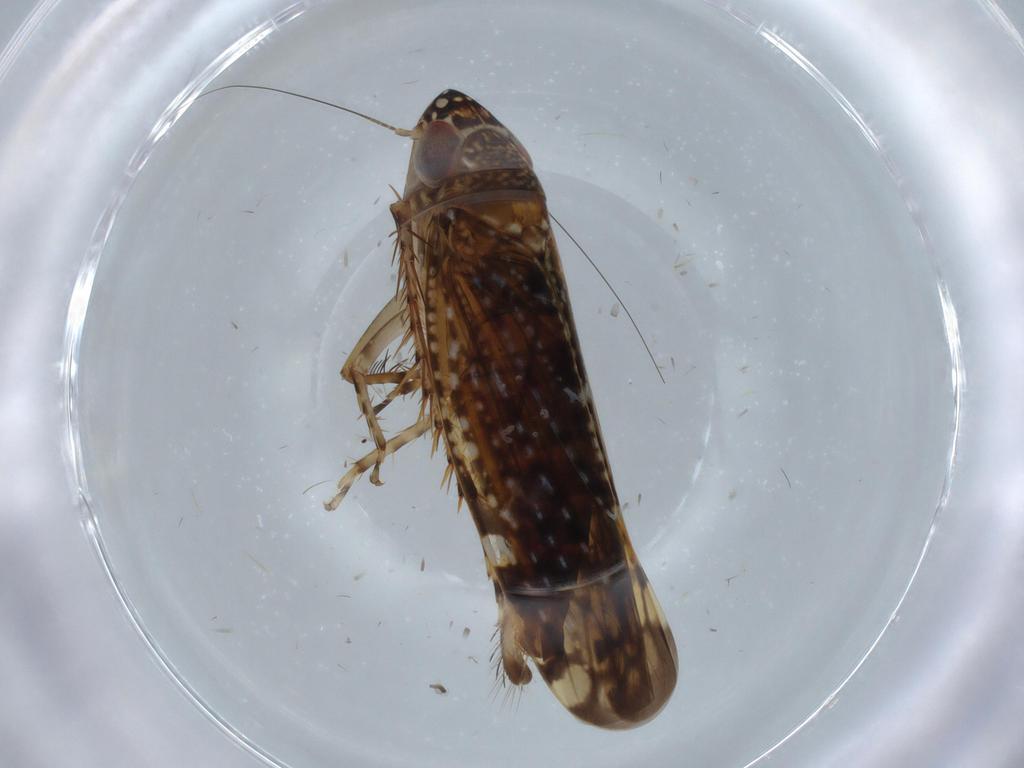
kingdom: Animalia
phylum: Arthropoda
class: Insecta
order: Hemiptera
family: Cicadellidae
